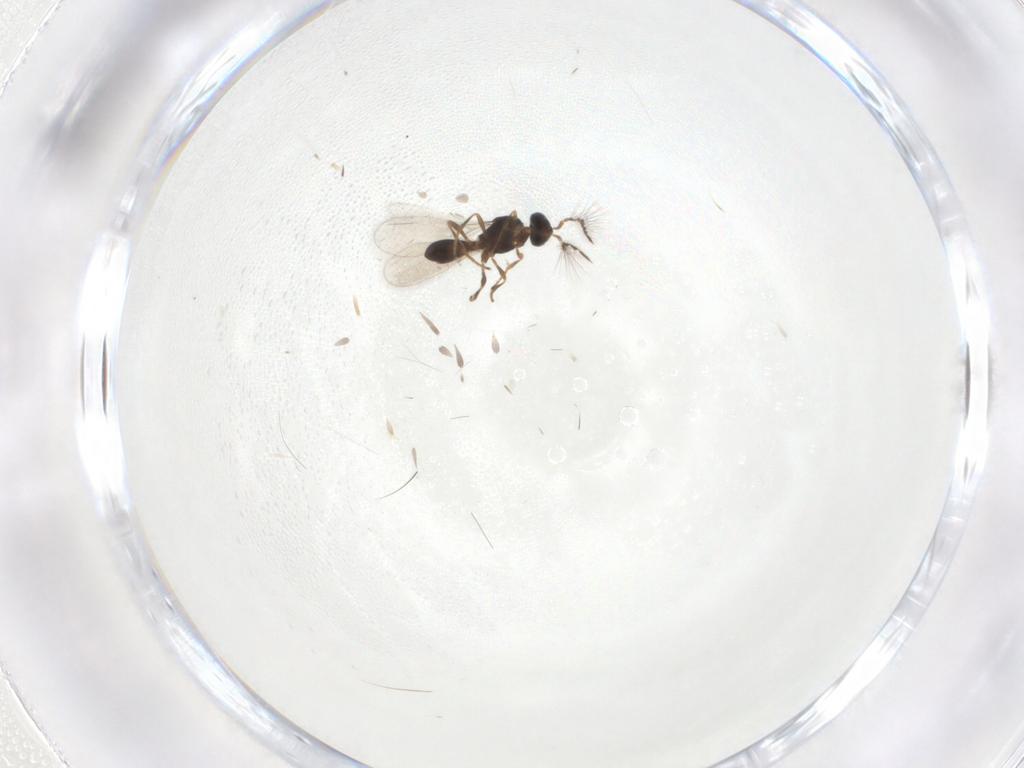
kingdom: Animalia
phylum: Arthropoda
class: Insecta
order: Hymenoptera
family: Platygastridae
